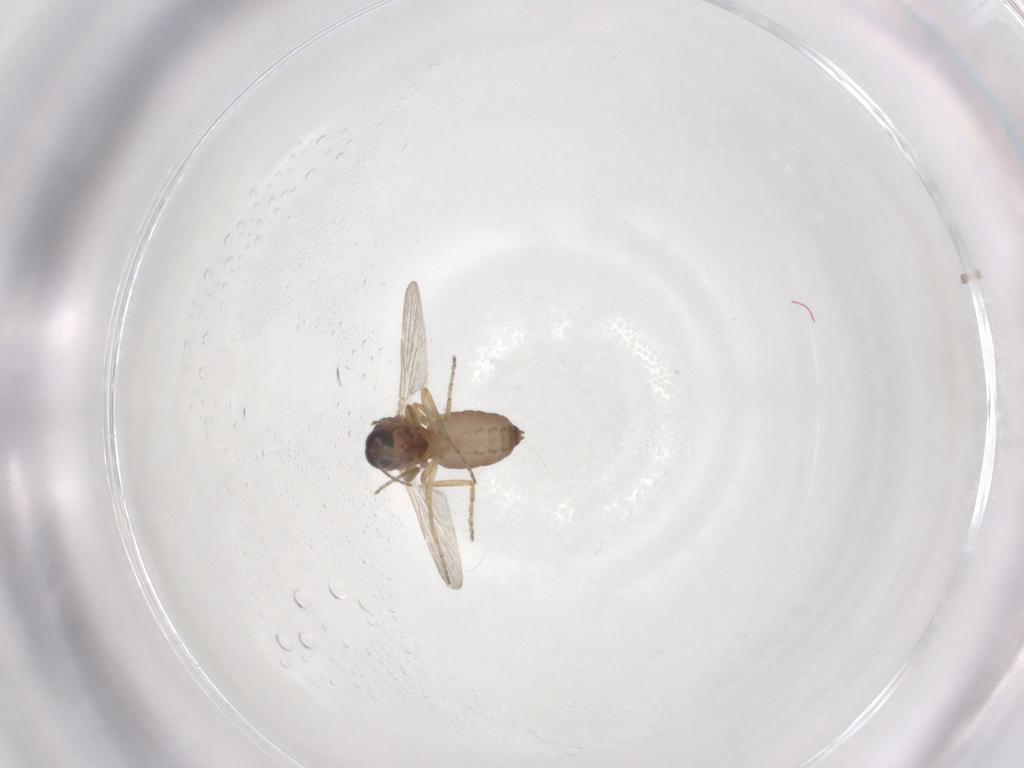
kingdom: Animalia
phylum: Arthropoda
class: Insecta
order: Diptera
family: Ceratopogonidae
